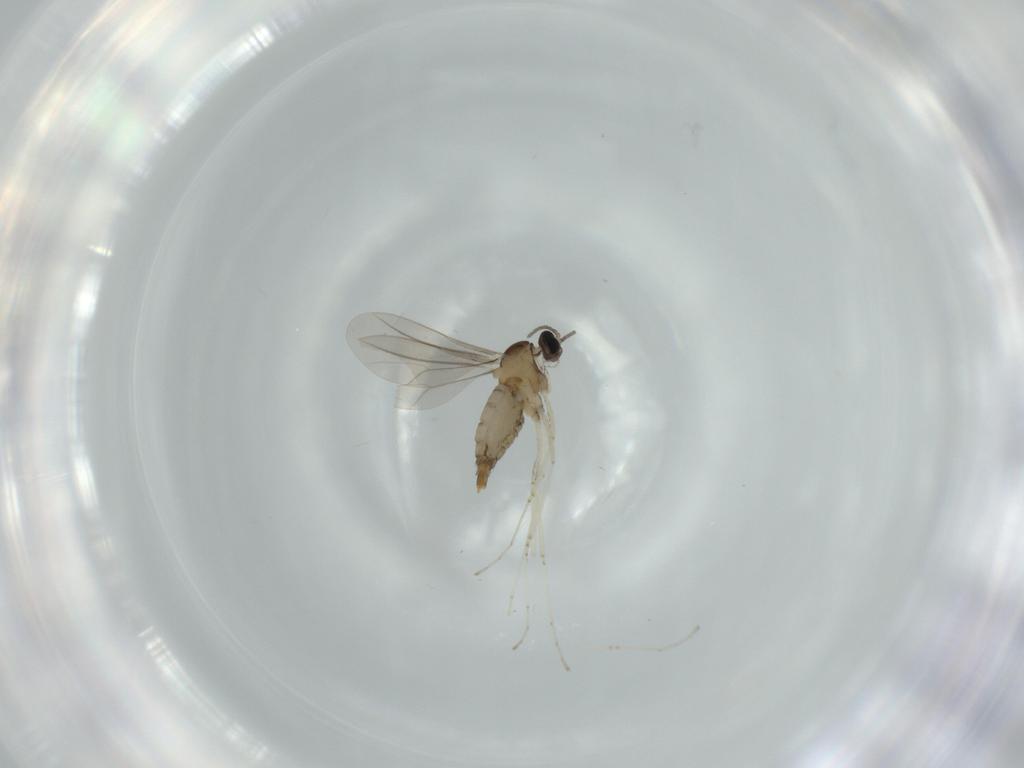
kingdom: Animalia
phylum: Arthropoda
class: Insecta
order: Diptera
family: Cecidomyiidae
